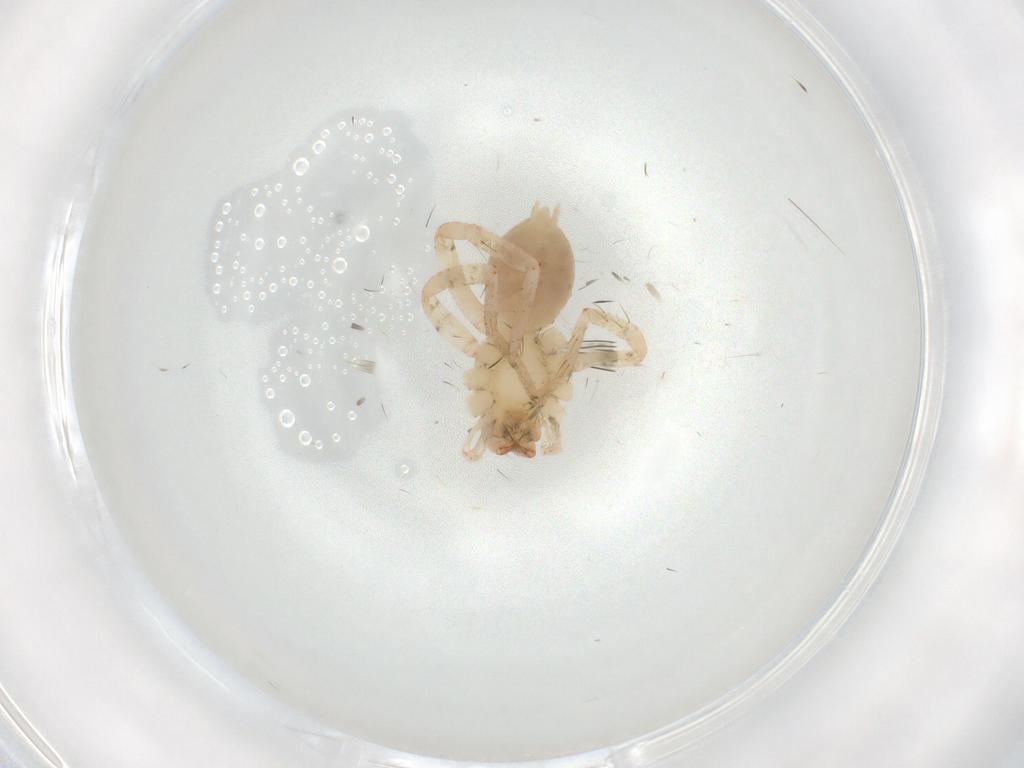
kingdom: Animalia
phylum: Arthropoda
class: Arachnida
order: Araneae
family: Anyphaenidae
